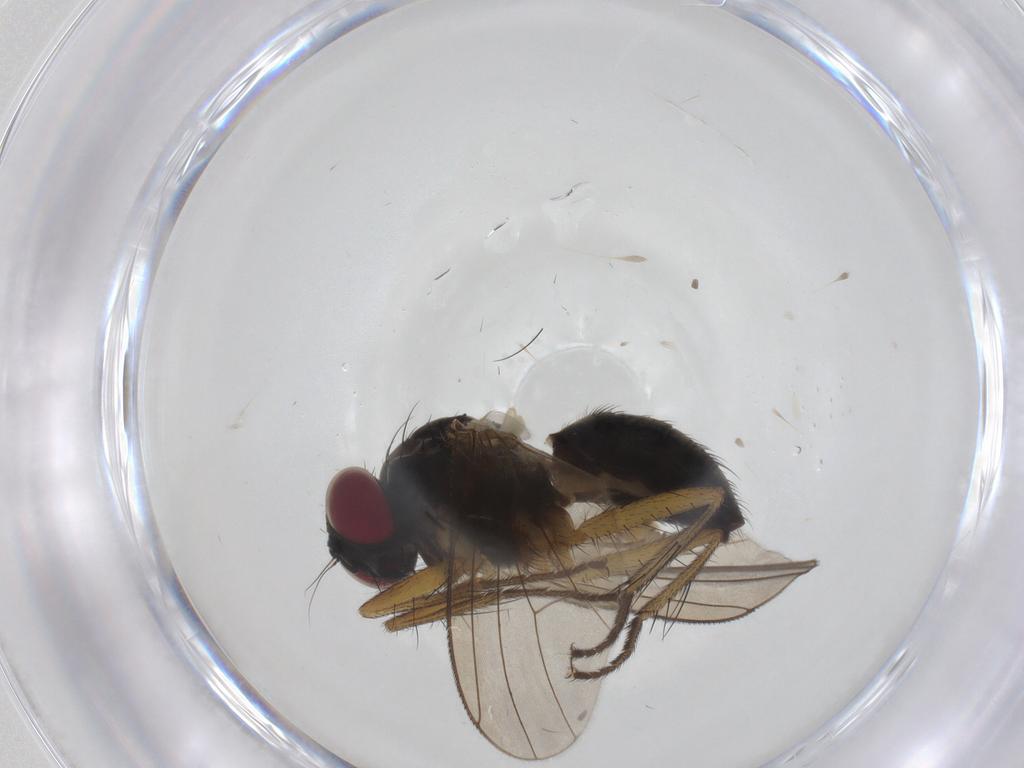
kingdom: Animalia
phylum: Arthropoda
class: Insecta
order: Diptera
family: Muscidae
